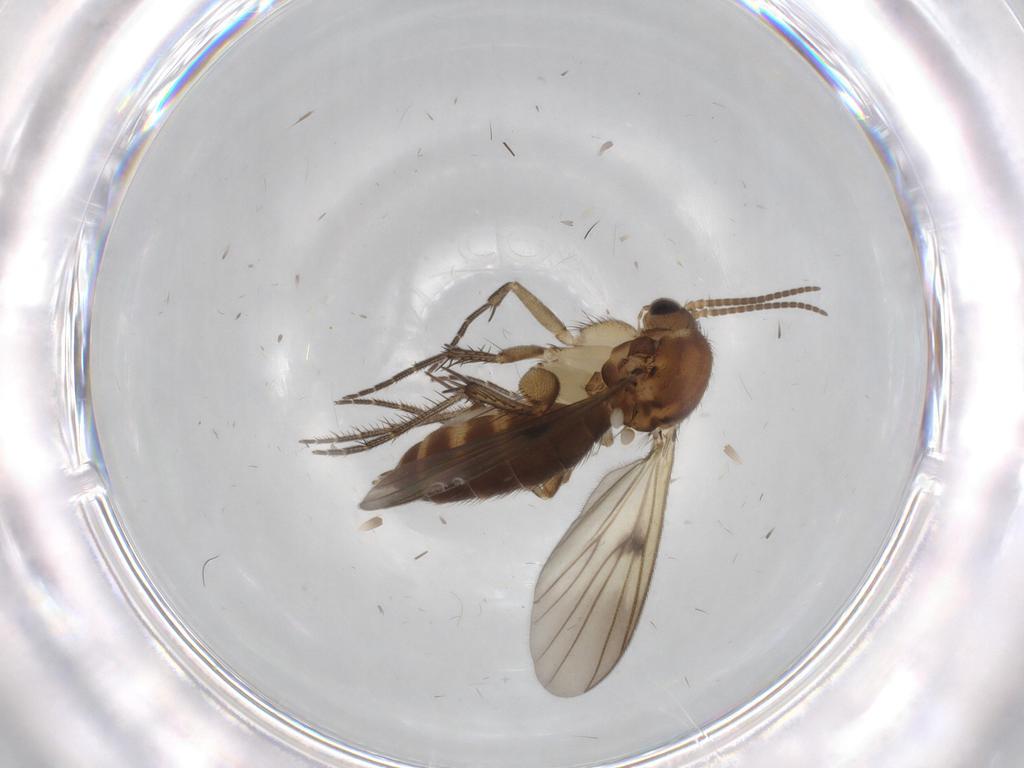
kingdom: Animalia
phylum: Arthropoda
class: Insecta
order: Diptera
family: Mycetophilidae
